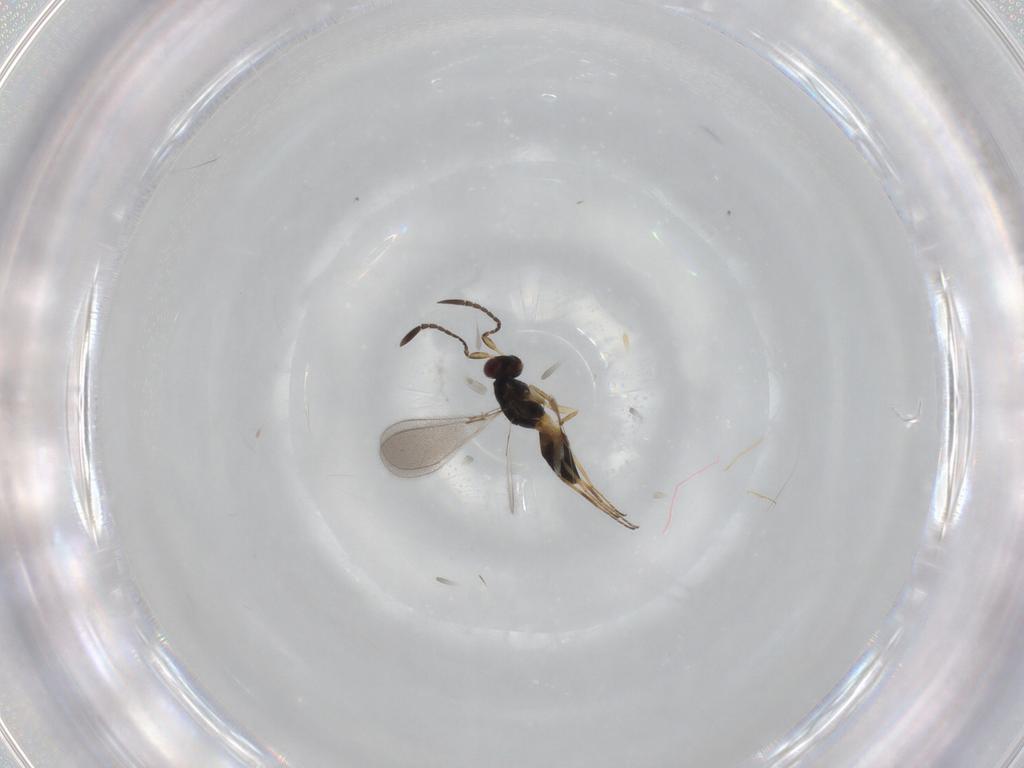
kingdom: Animalia
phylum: Arthropoda
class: Insecta
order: Hymenoptera
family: Mymaridae
